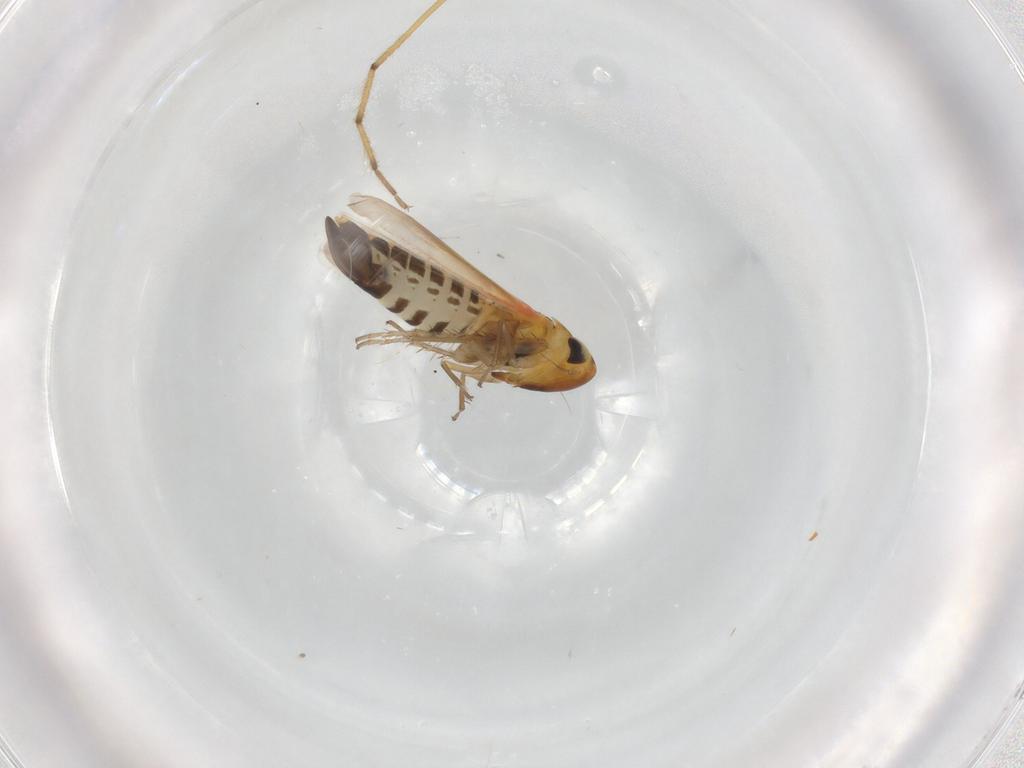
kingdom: Animalia
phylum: Arthropoda
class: Insecta
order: Hemiptera
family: Cicadellidae
